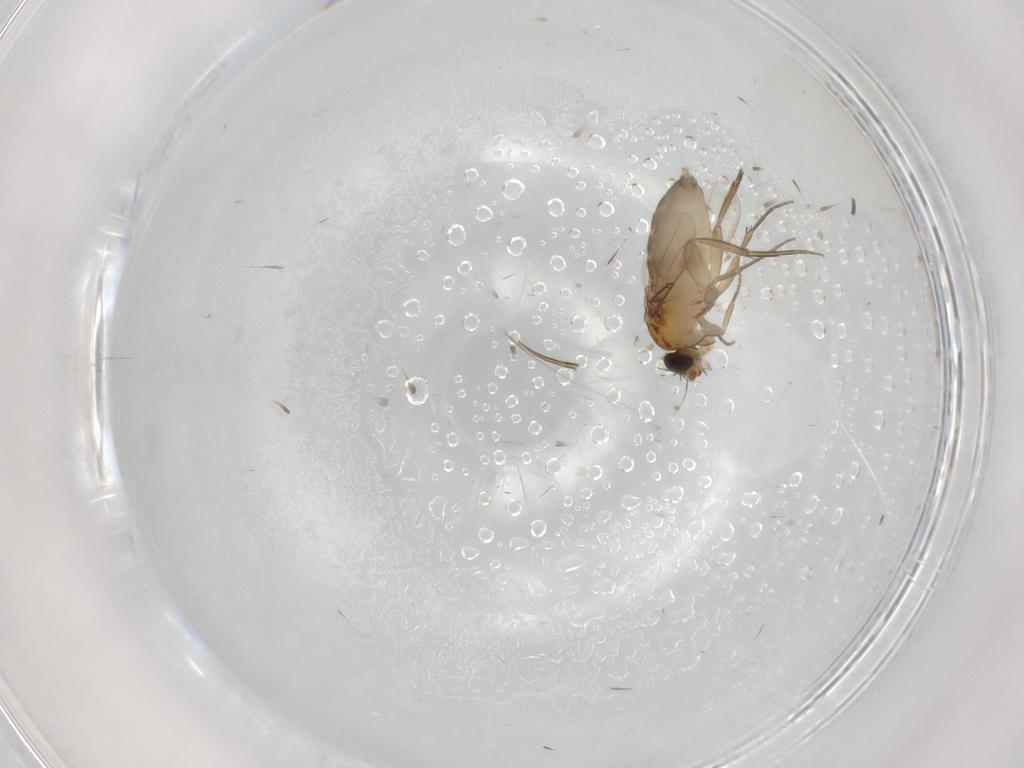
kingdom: Animalia
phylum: Arthropoda
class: Insecta
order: Diptera
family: Phoridae
